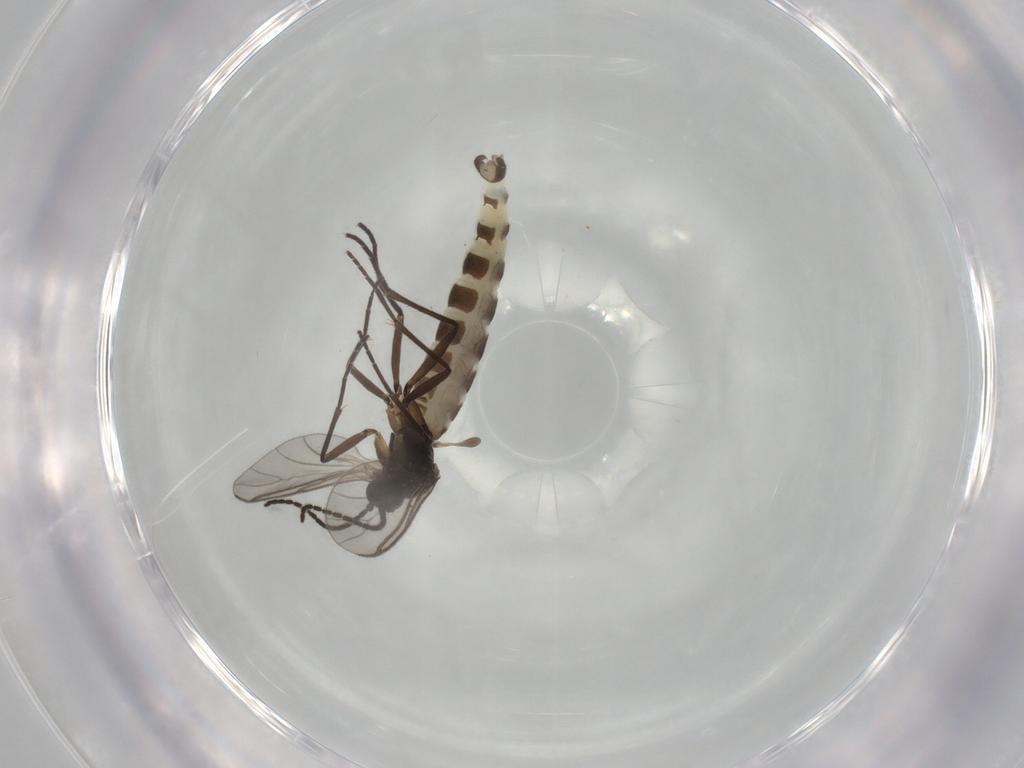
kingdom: Animalia
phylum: Arthropoda
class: Insecta
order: Diptera
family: Sciaridae
